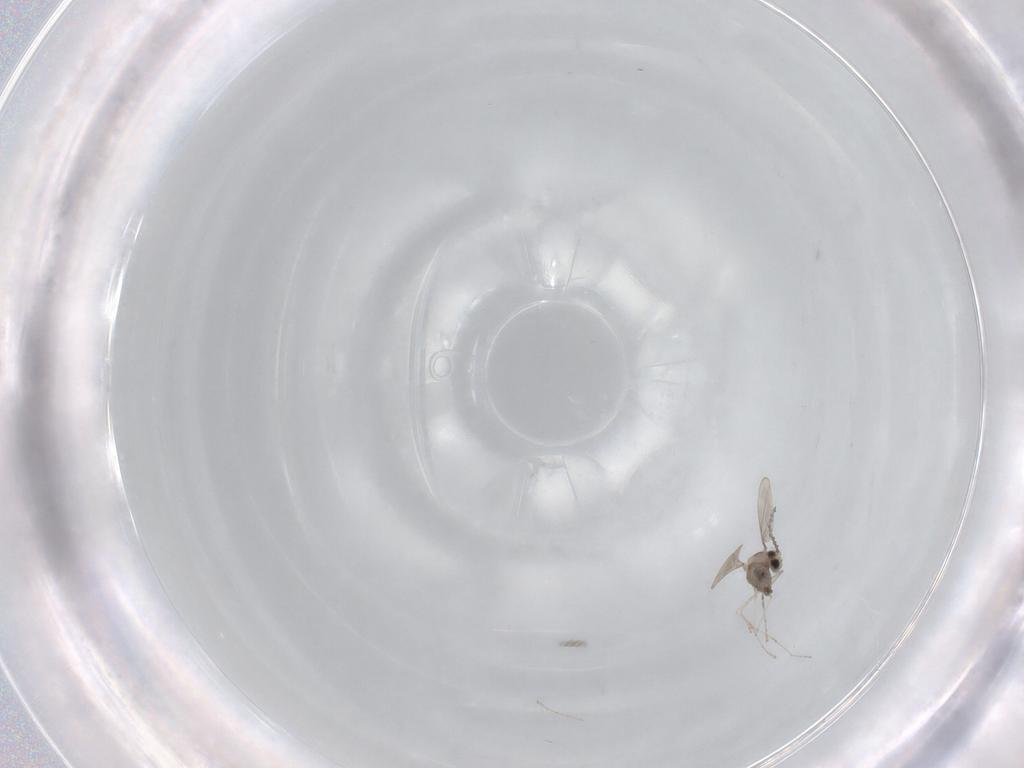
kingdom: Animalia
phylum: Arthropoda
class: Insecta
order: Diptera
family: Cecidomyiidae
